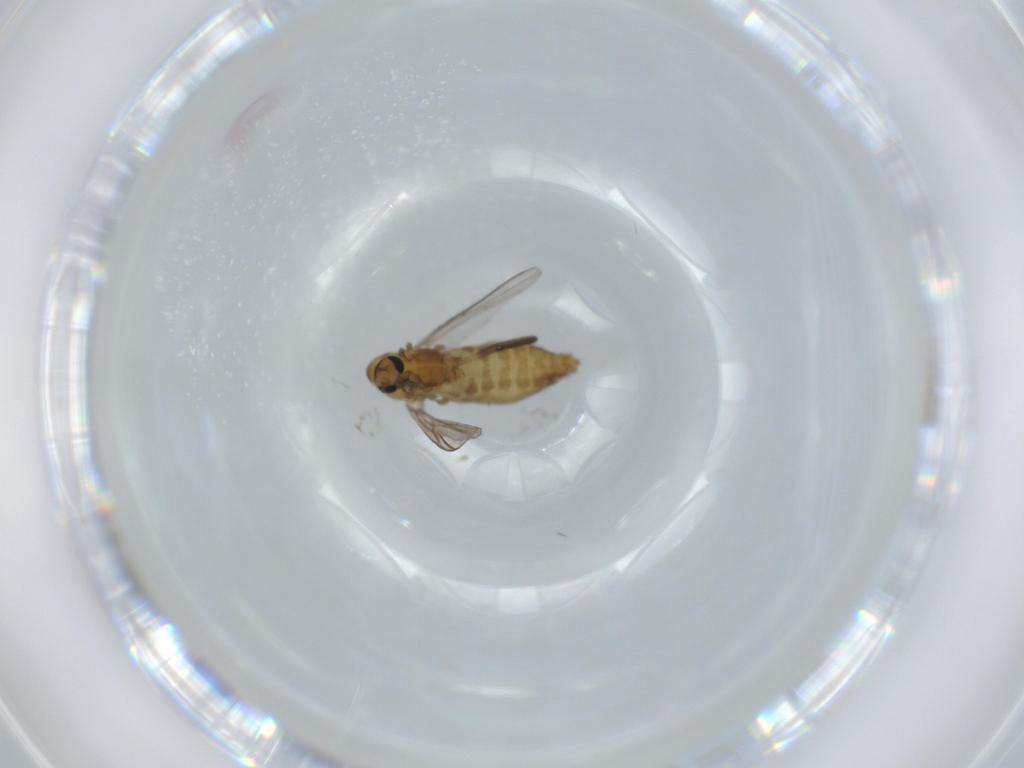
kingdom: Animalia
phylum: Arthropoda
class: Insecta
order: Diptera
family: Chironomidae
